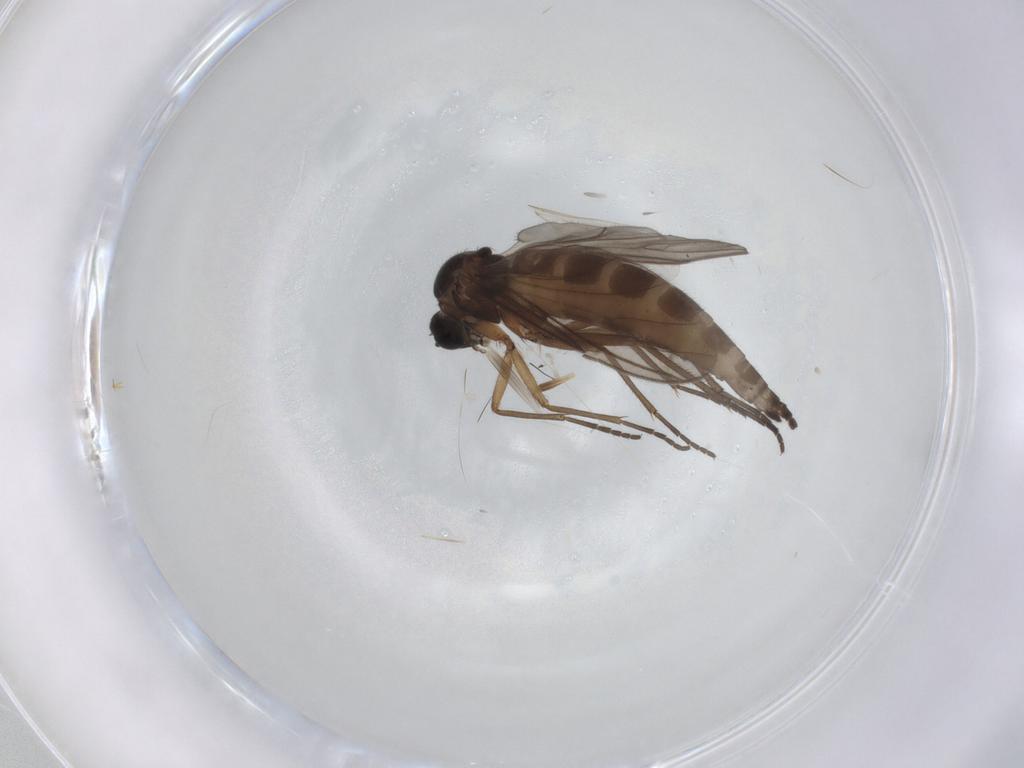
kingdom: Animalia
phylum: Arthropoda
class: Insecta
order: Diptera
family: Sciaridae
